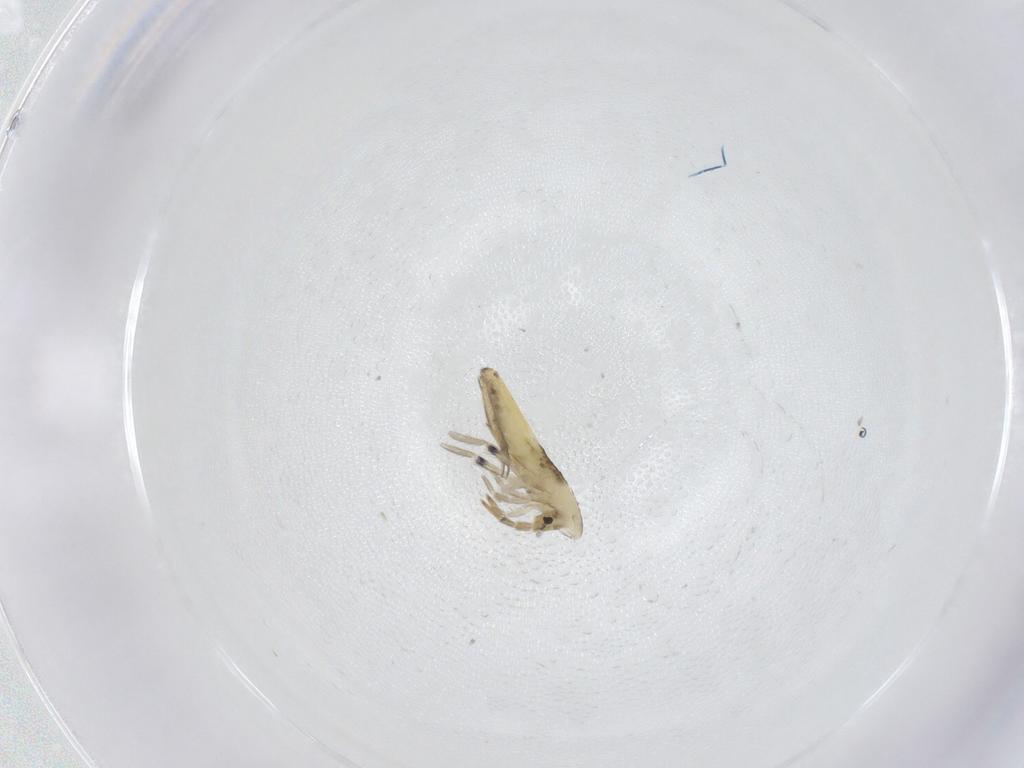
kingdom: Animalia
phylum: Arthropoda
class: Collembola
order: Entomobryomorpha
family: Entomobryidae
